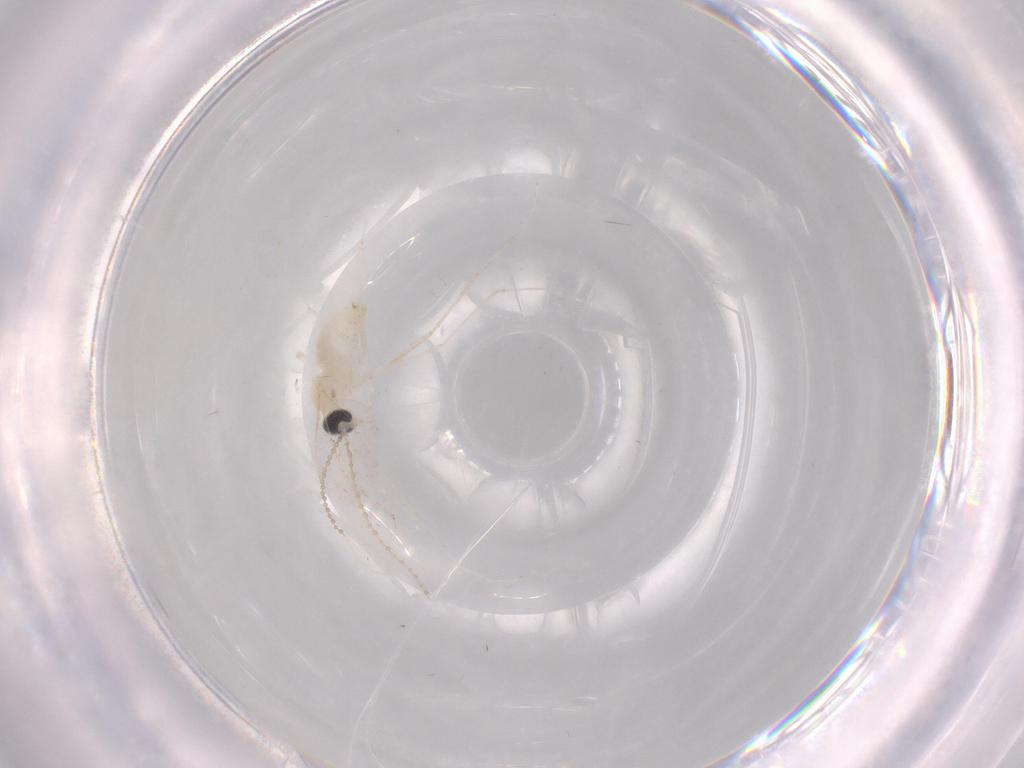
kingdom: Animalia
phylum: Arthropoda
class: Insecta
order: Diptera
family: Cecidomyiidae
